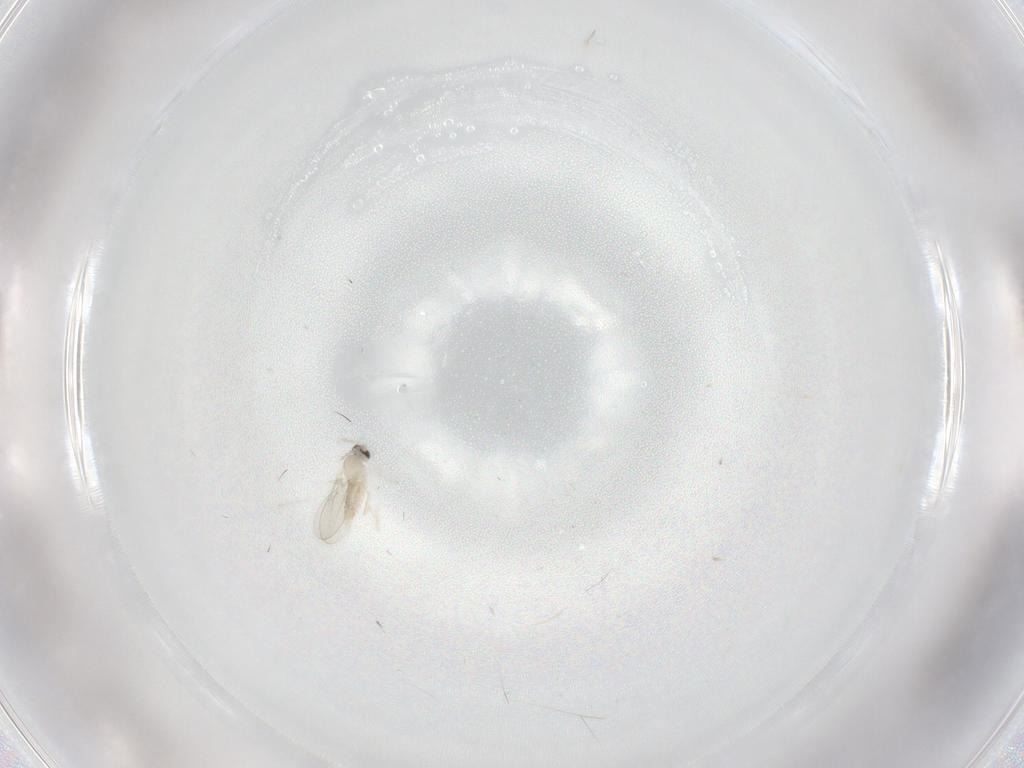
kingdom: Animalia
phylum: Arthropoda
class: Insecta
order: Diptera
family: Cecidomyiidae
